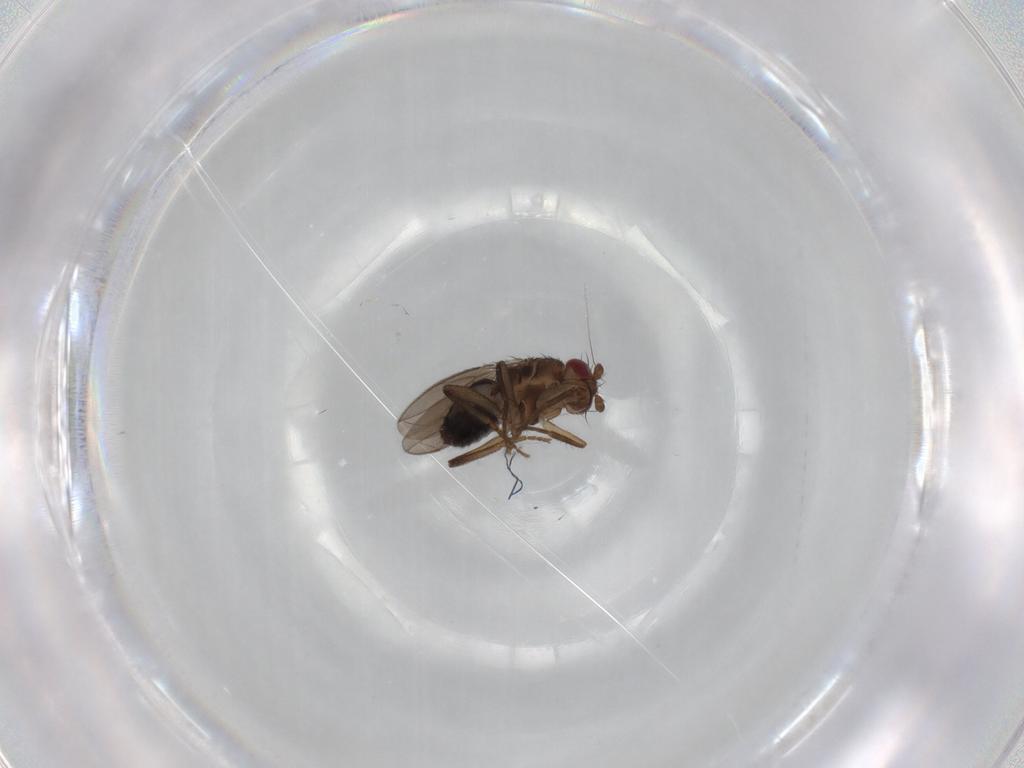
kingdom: Animalia
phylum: Arthropoda
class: Insecta
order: Diptera
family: Sphaeroceridae
